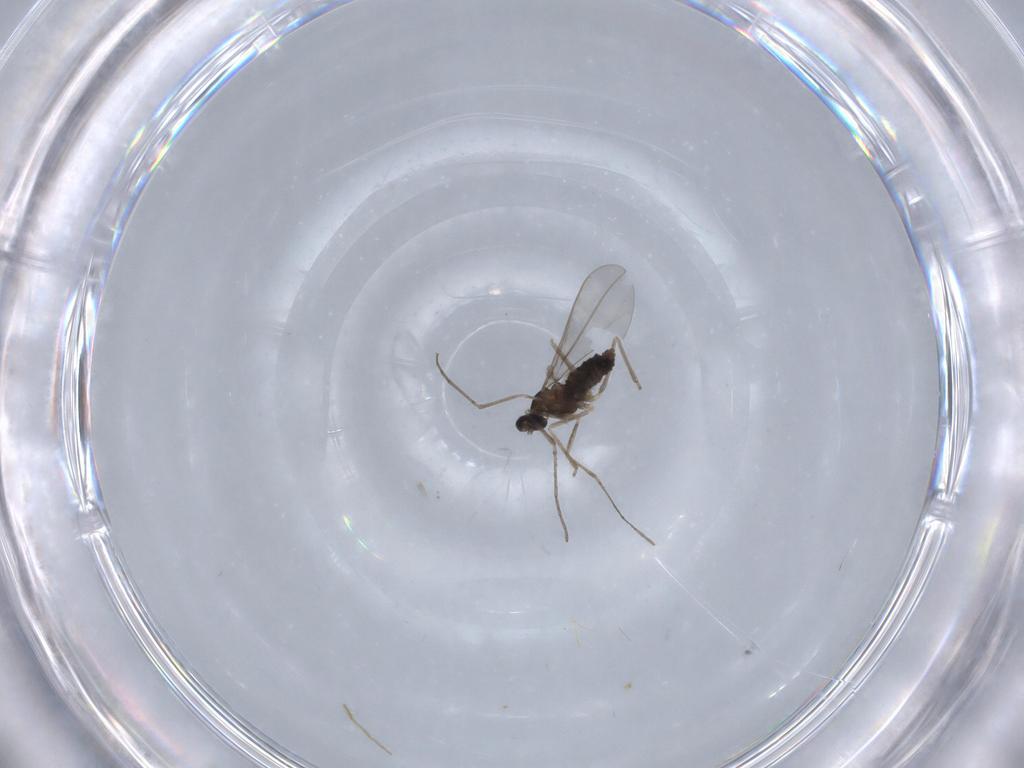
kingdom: Animalia
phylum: Arthropoda
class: Insecta
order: Diptera
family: Cecidomyiidae
